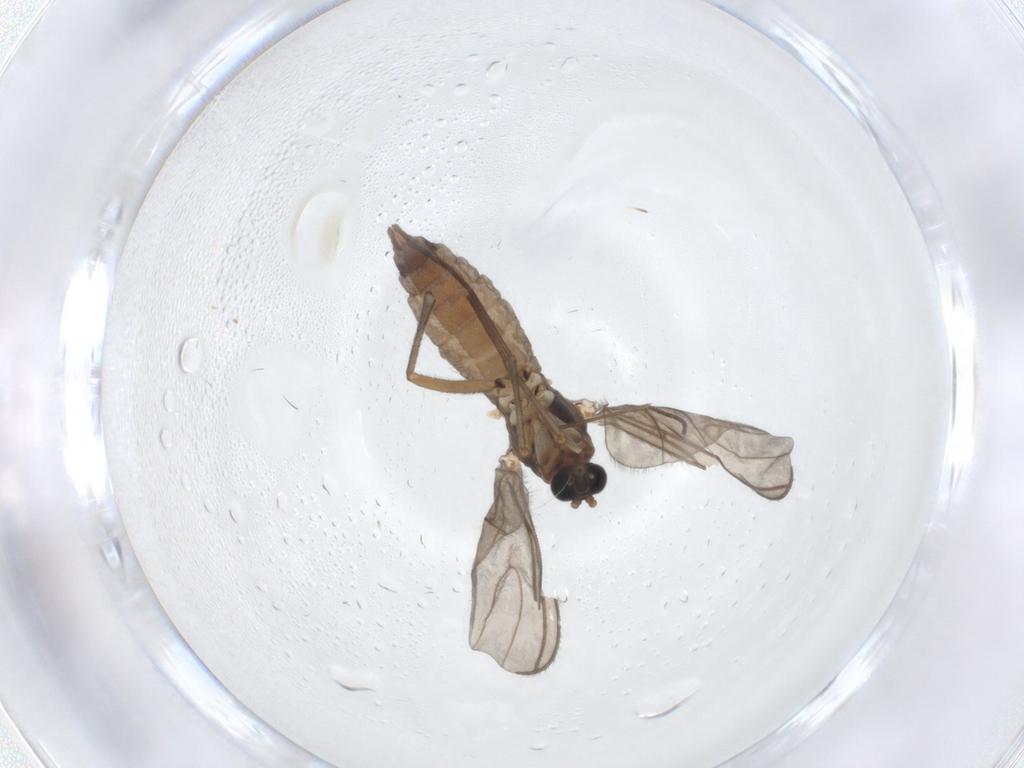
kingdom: Animalia
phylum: Arthropoda
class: Insecta
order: Diptera
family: Sciaridae
